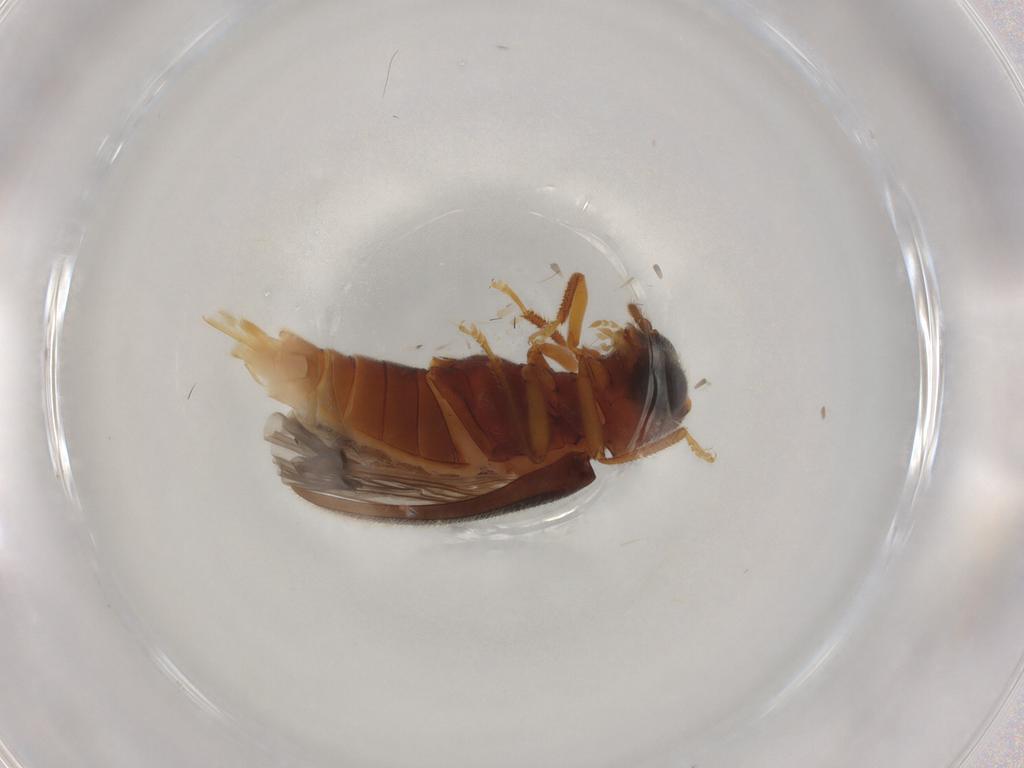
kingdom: Animalia
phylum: Arthropoda
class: Insecta
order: Coleoptera
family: Ptilodactylidae
